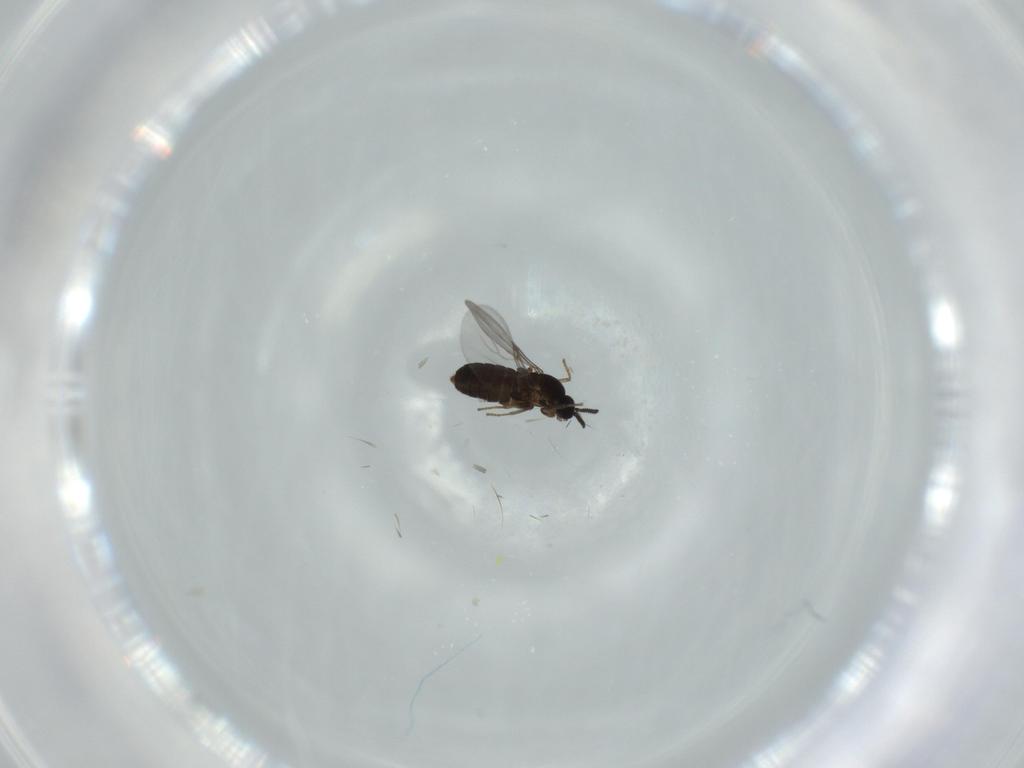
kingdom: Animalia
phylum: Arthropoda
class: Insecta
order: Diptera
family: Scatopsidae
